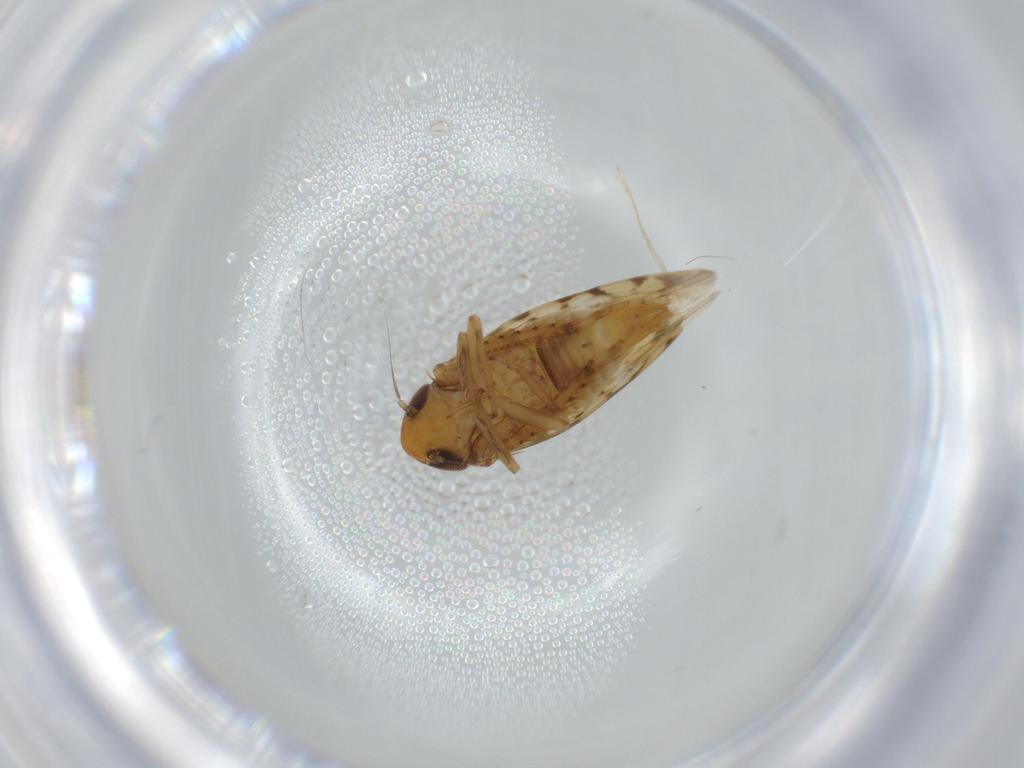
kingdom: Animalia
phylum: Arthropoda
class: Insecta
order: Hemiptera
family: Cicadellidae
